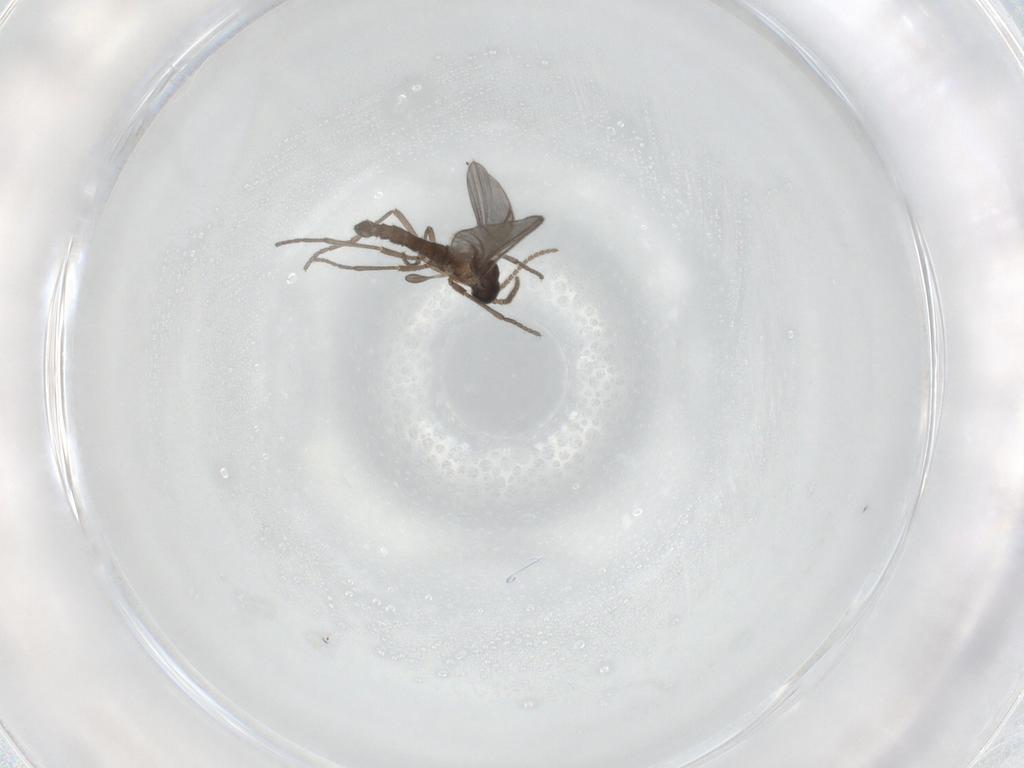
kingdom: Animalia
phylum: Arthropoda
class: Insecta
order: Diptera
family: Sciaridae
